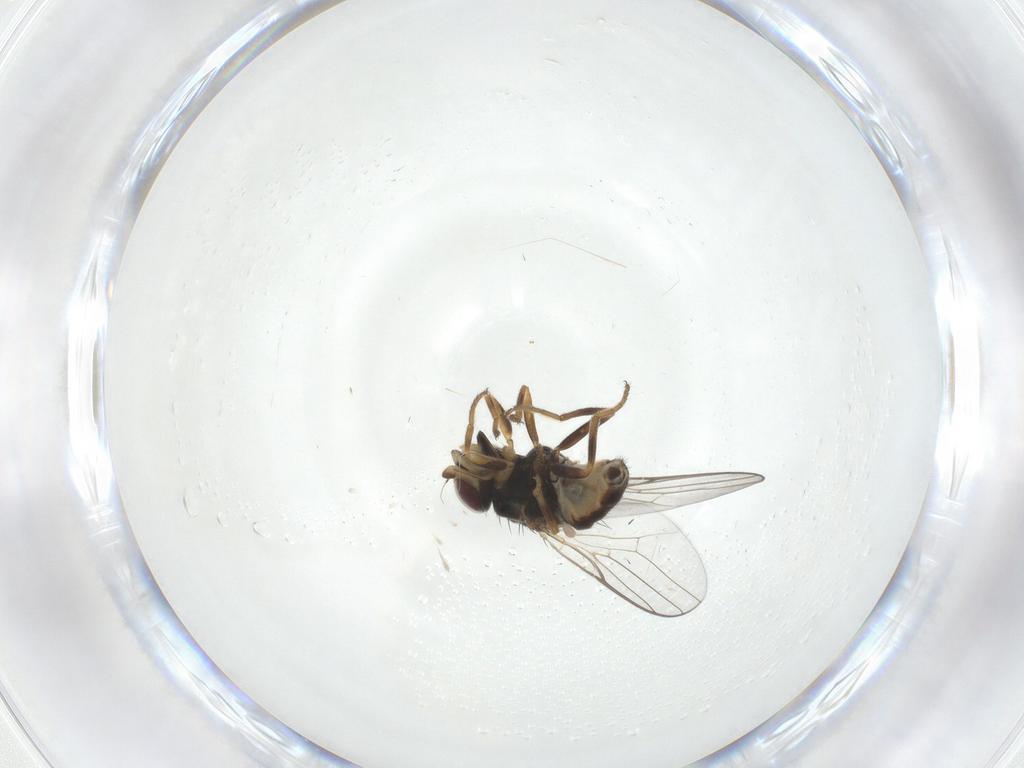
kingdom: Animalia
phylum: Arthropoda
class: Insecta
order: Diptera
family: Chloropidae
